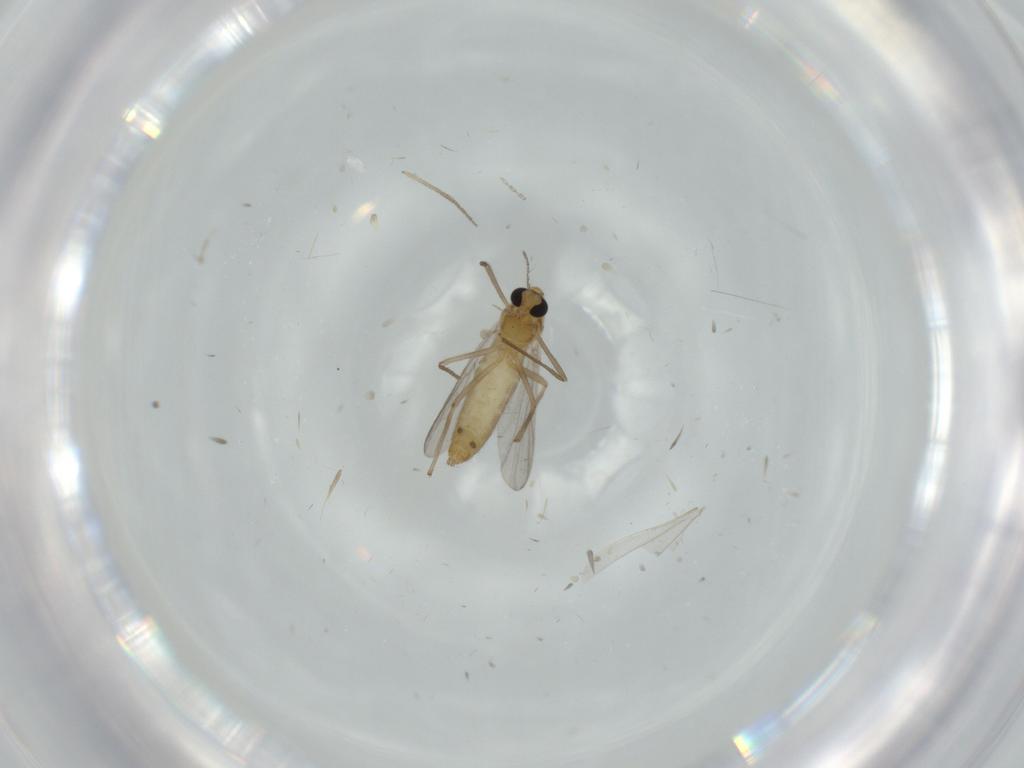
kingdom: Animalia
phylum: Arthropoda
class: Insecta
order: Diptera
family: Chironomidae
